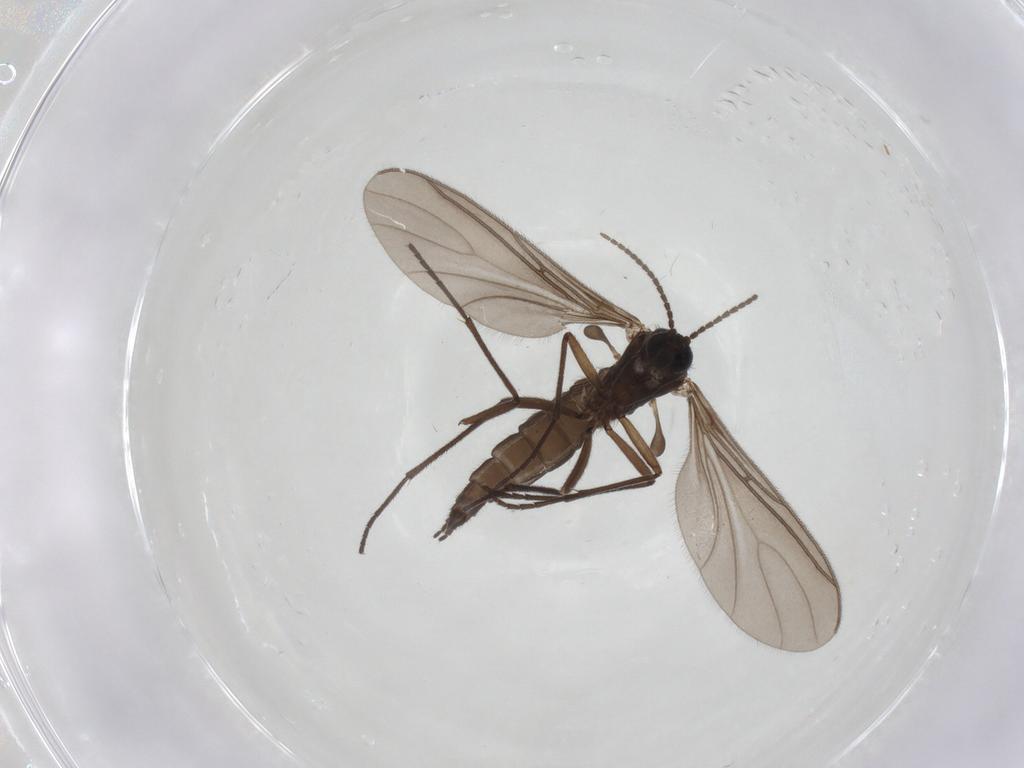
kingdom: Animalia
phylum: Arthropoda
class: Insecta
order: Diptera
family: Sciaridae
